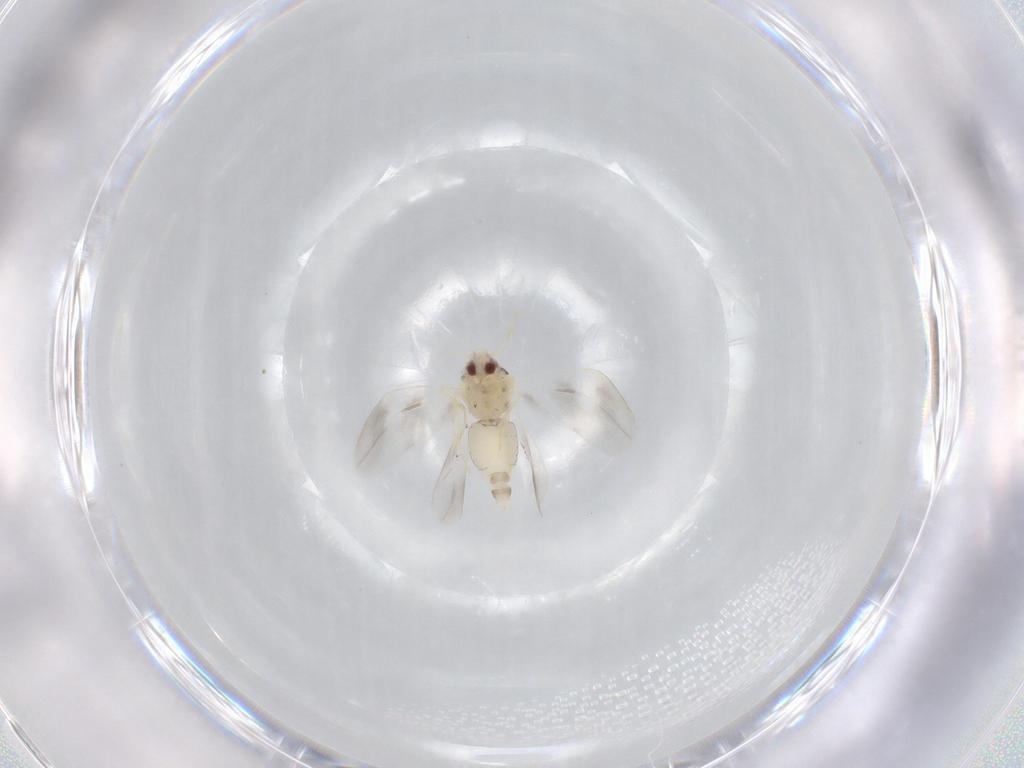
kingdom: Animalia
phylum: Arthropoda
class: Insecta
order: Hemiptera
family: Aleyrodidae
